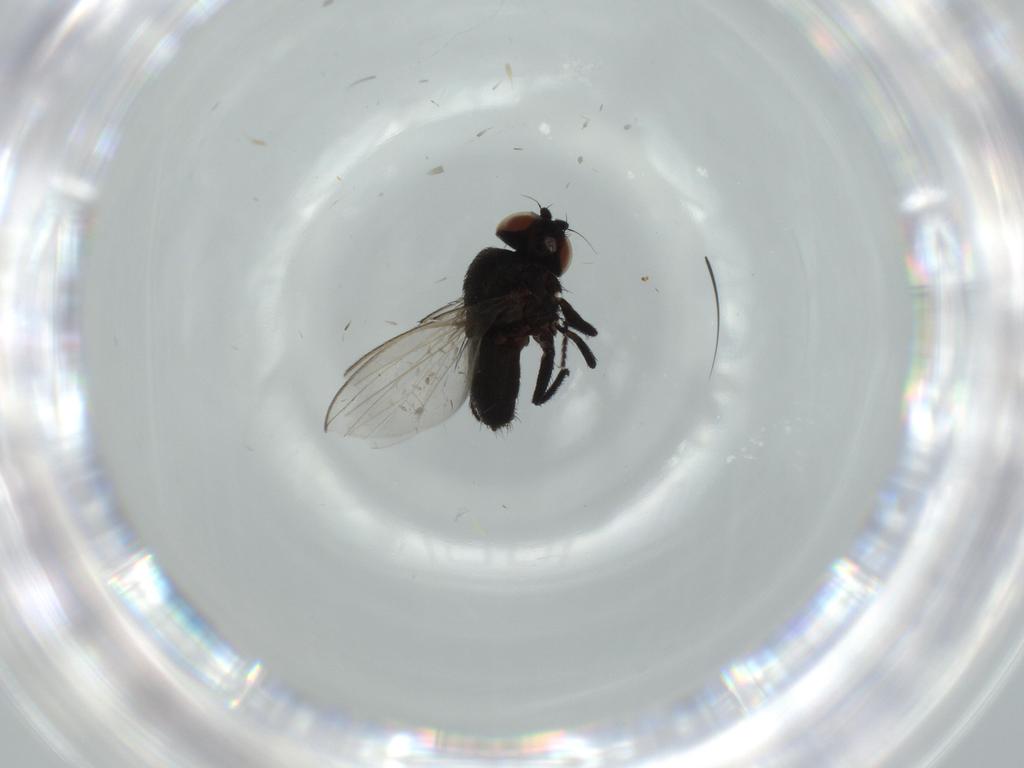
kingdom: Animalia
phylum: Arthropoda
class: Insecta
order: Diptera
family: Milichiidae
